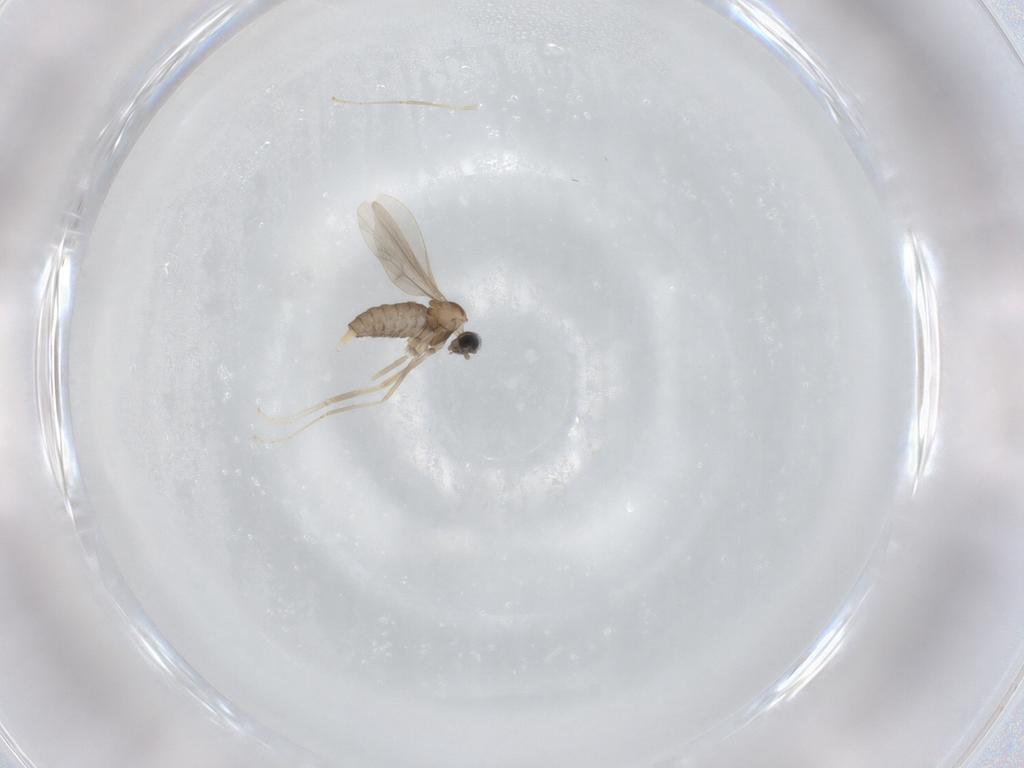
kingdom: Animalia
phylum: Arthropoda
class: Insecta
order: Diptera
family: Cecidomyiidae
